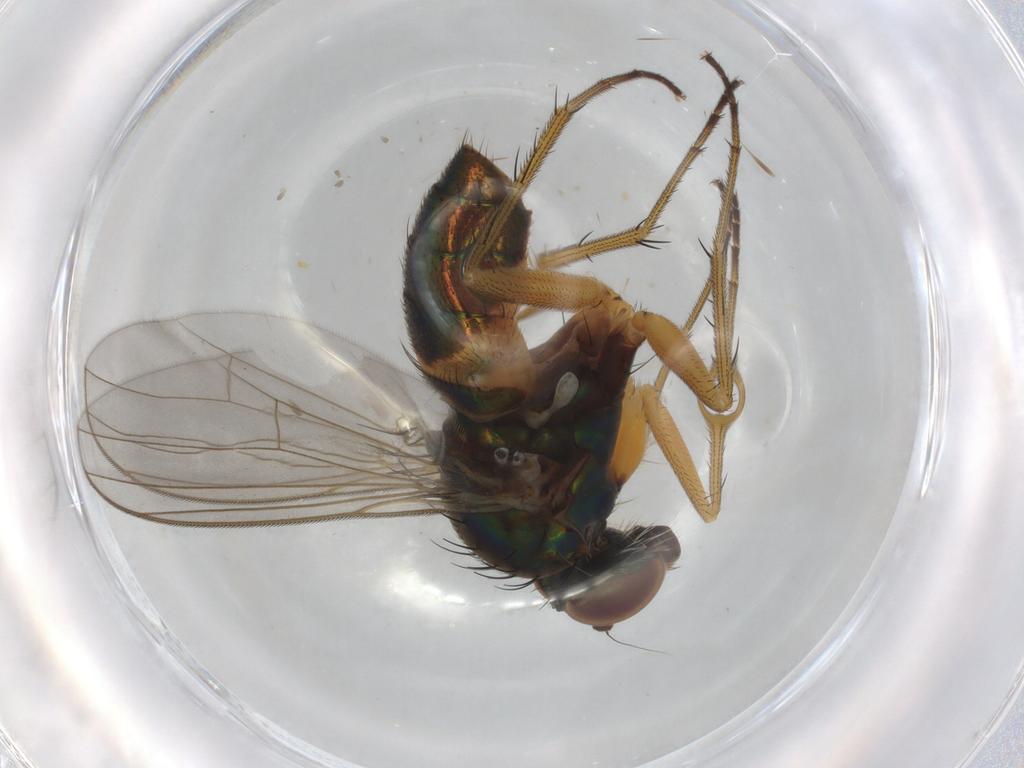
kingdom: Animalia
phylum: Arthropoda
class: Insecta
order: Diptera
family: Psychodidae
